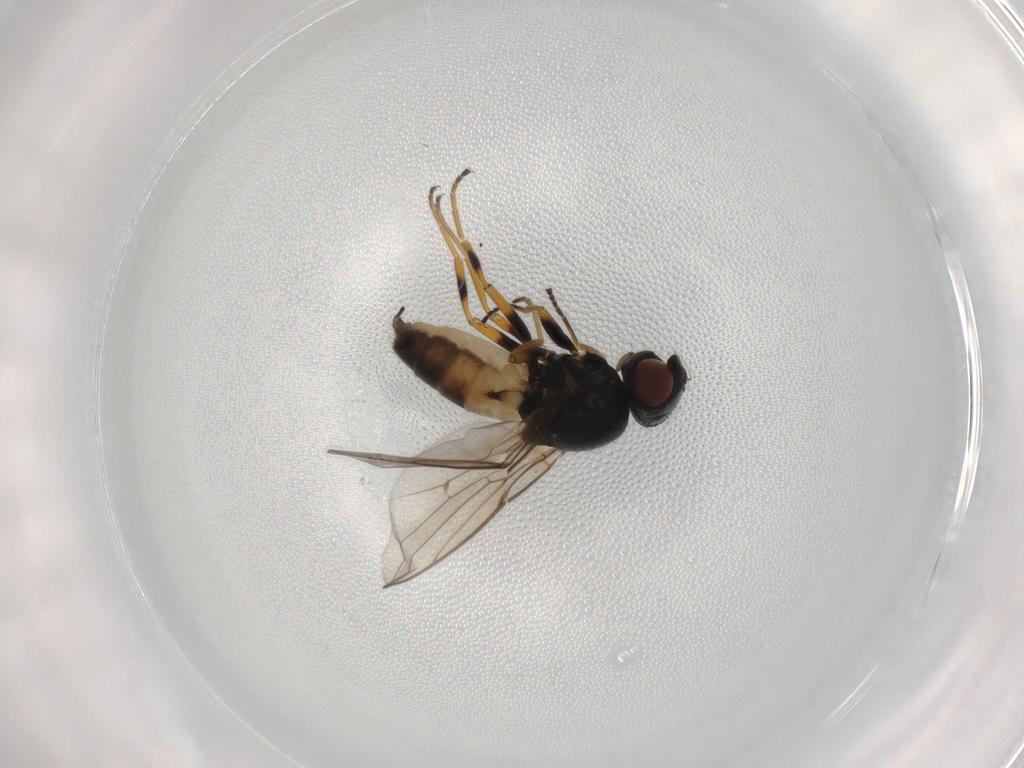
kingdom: Animalia
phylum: Arthropoda
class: Insecta
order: Diptera
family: Chloropidae
